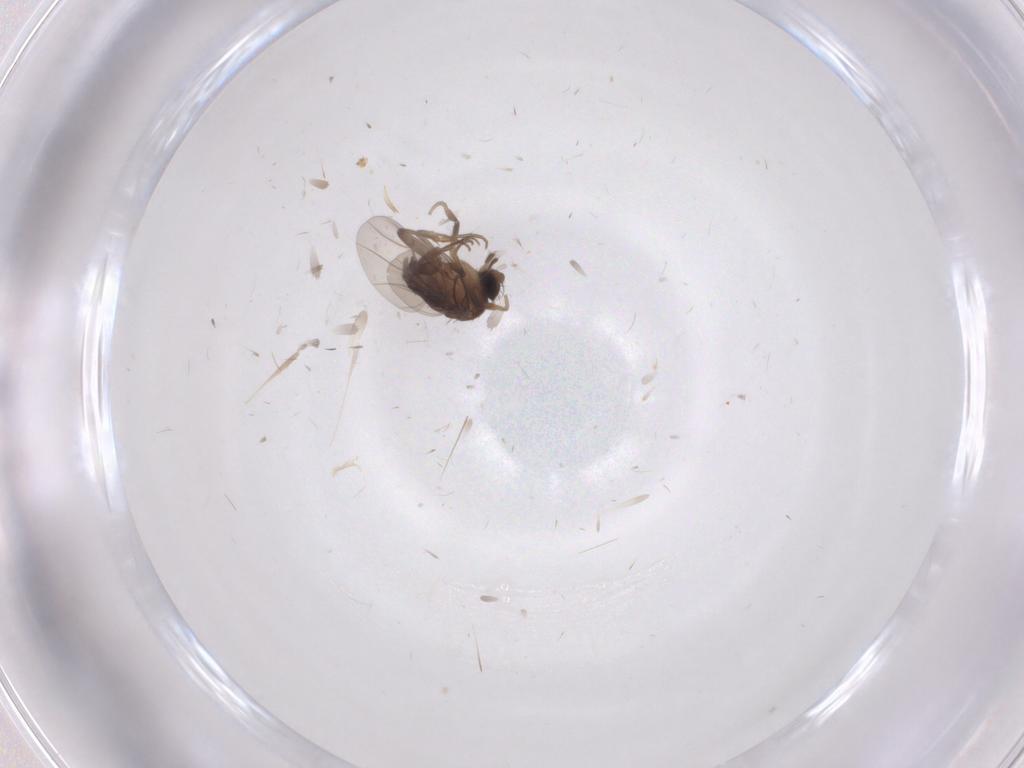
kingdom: Animalia
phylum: Arthropoda
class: Insecta
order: Diptera
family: Phoridae
